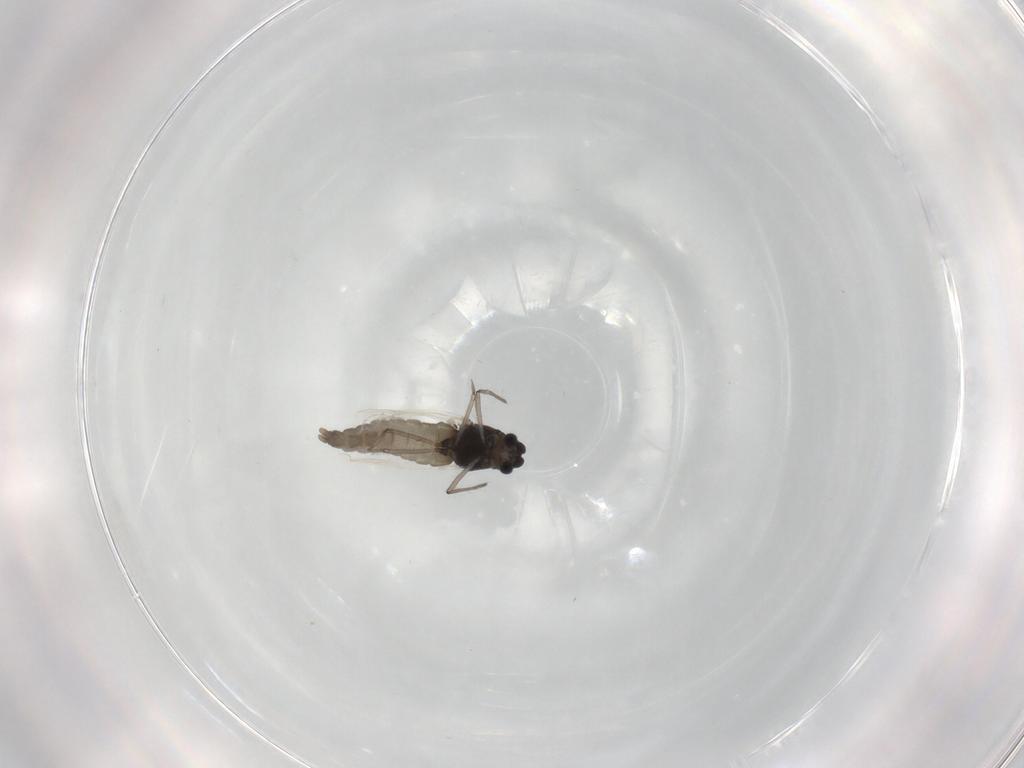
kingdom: Animalia
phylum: Arthropoda
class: Insecta
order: Diptera
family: Chironomidae
